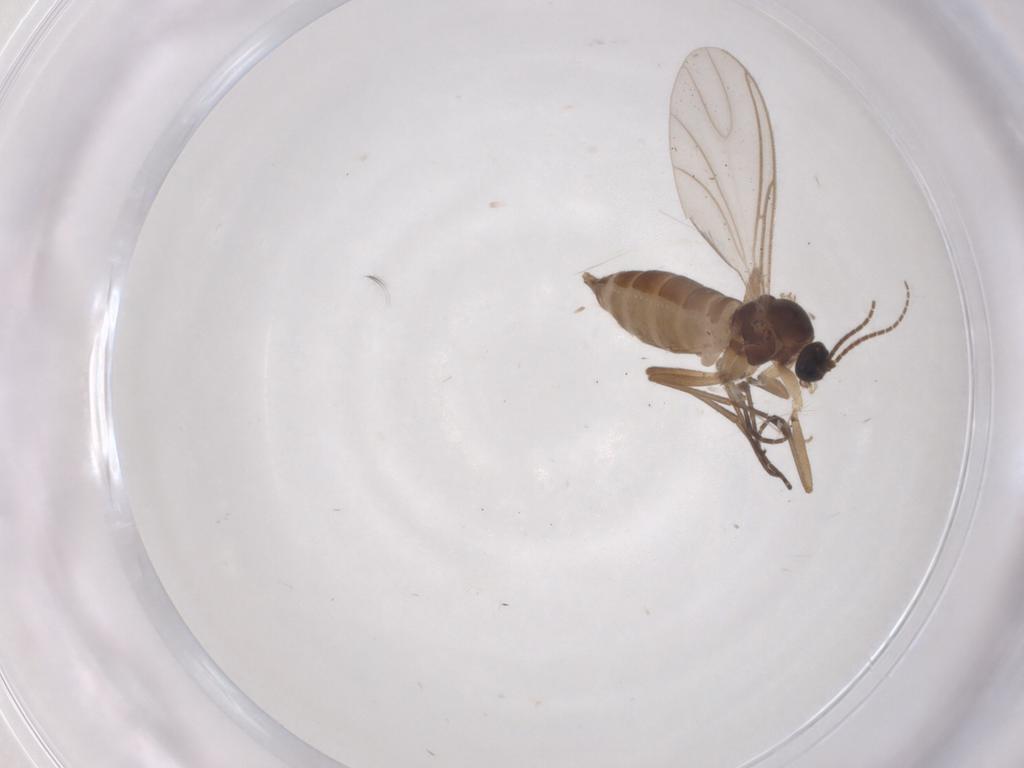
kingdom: Animalia
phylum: Arthropoda
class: Insecta
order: Diptera
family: Sciaridae
